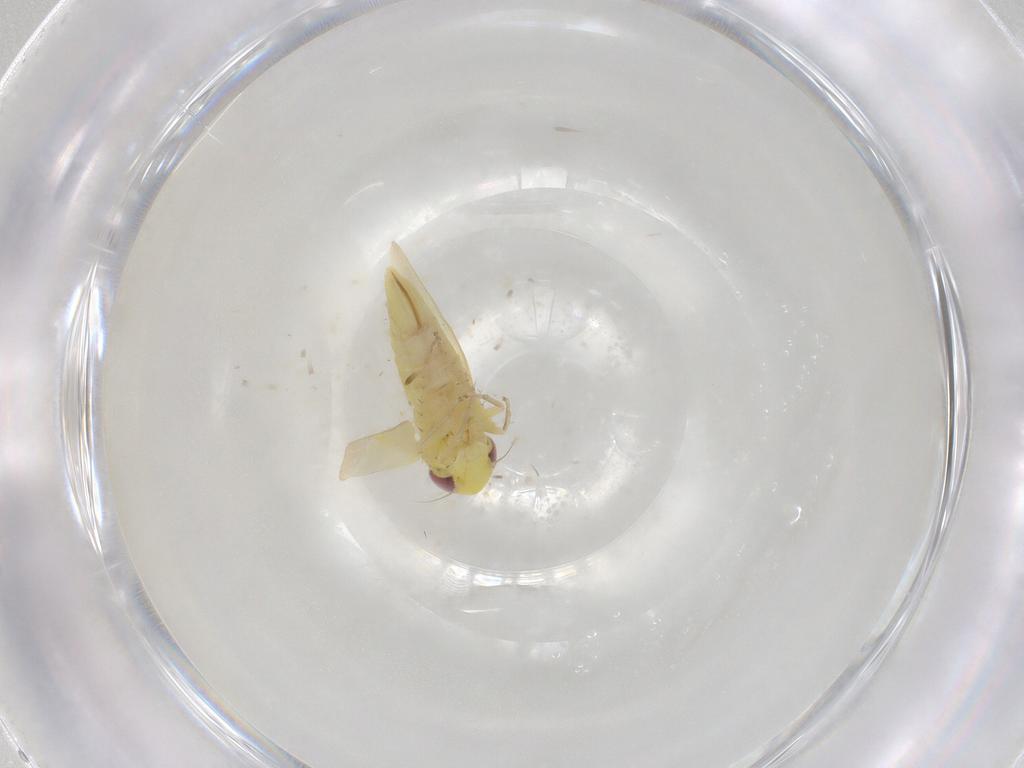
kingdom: Animalia
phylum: Arthropoda
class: Insecta
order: Hemiptera
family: Cicadellidae
